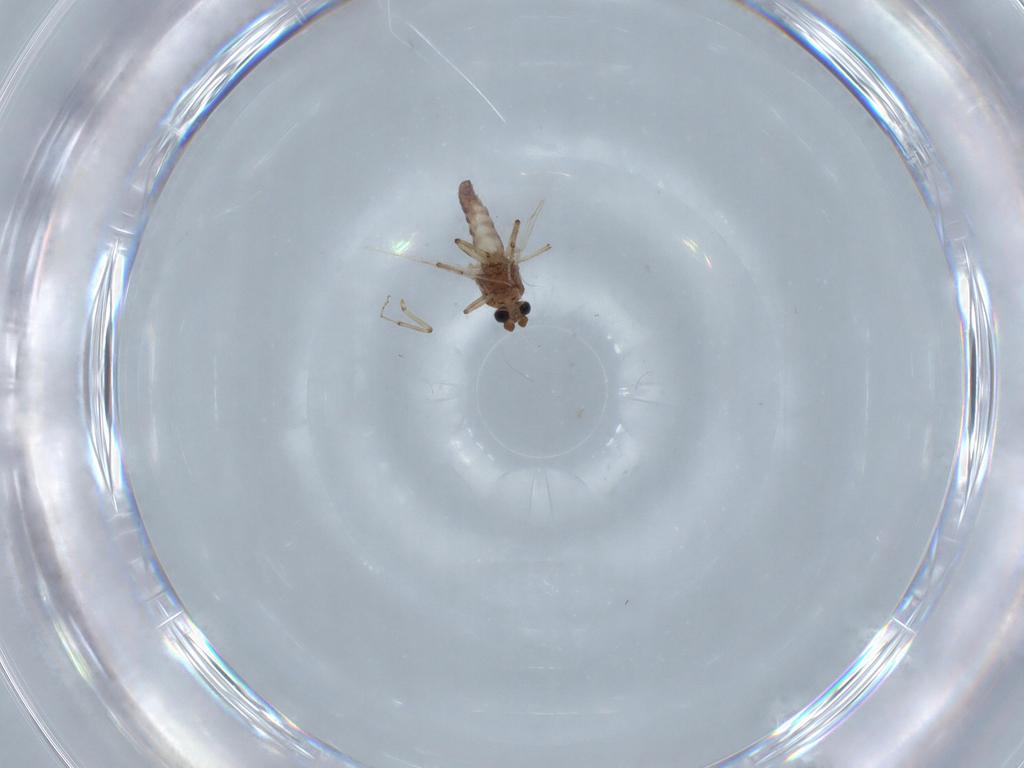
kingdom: Animalia
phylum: Arthropoda
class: Insecta
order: Diptera
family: Ceratopogonidae
